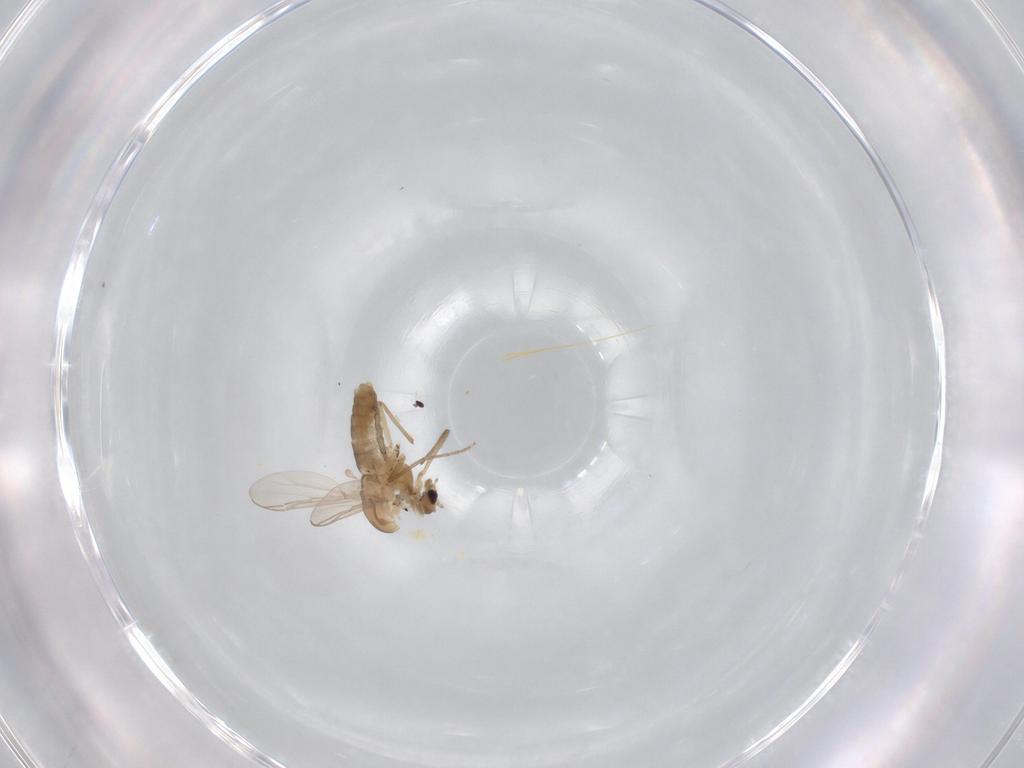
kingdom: Animalia
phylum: Arthropoda
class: Insecta
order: Diptera
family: Chironomidae
